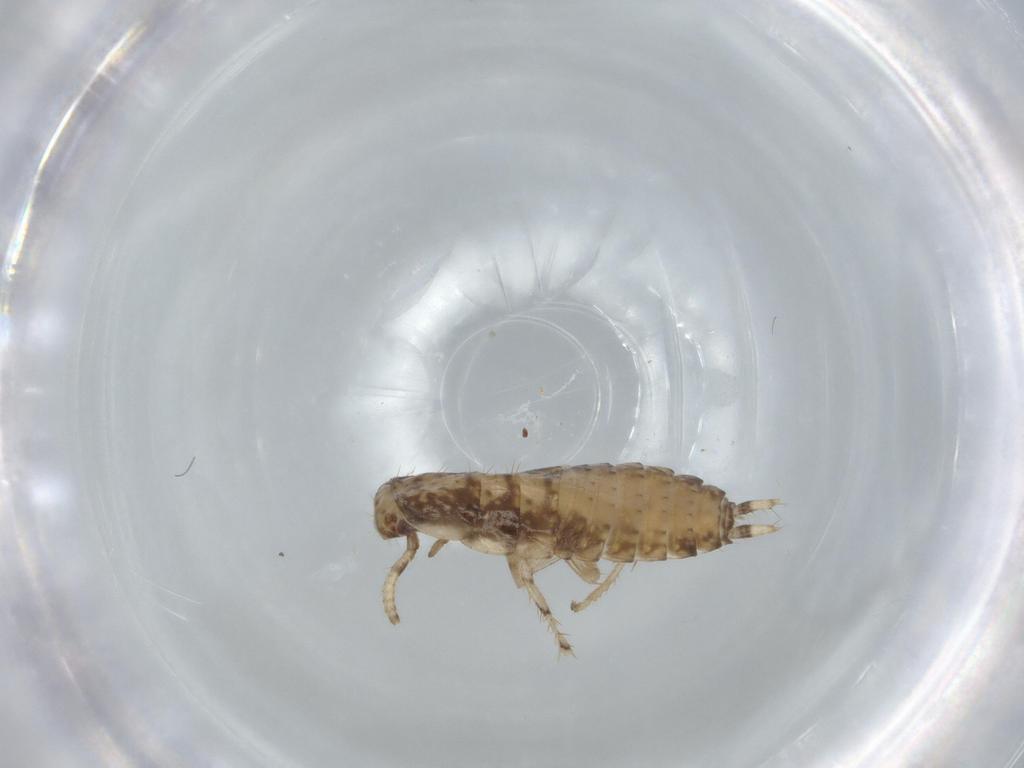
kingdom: Animalia
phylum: Arthropoda
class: Insecta
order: Blattodea
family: Ectobiidae
